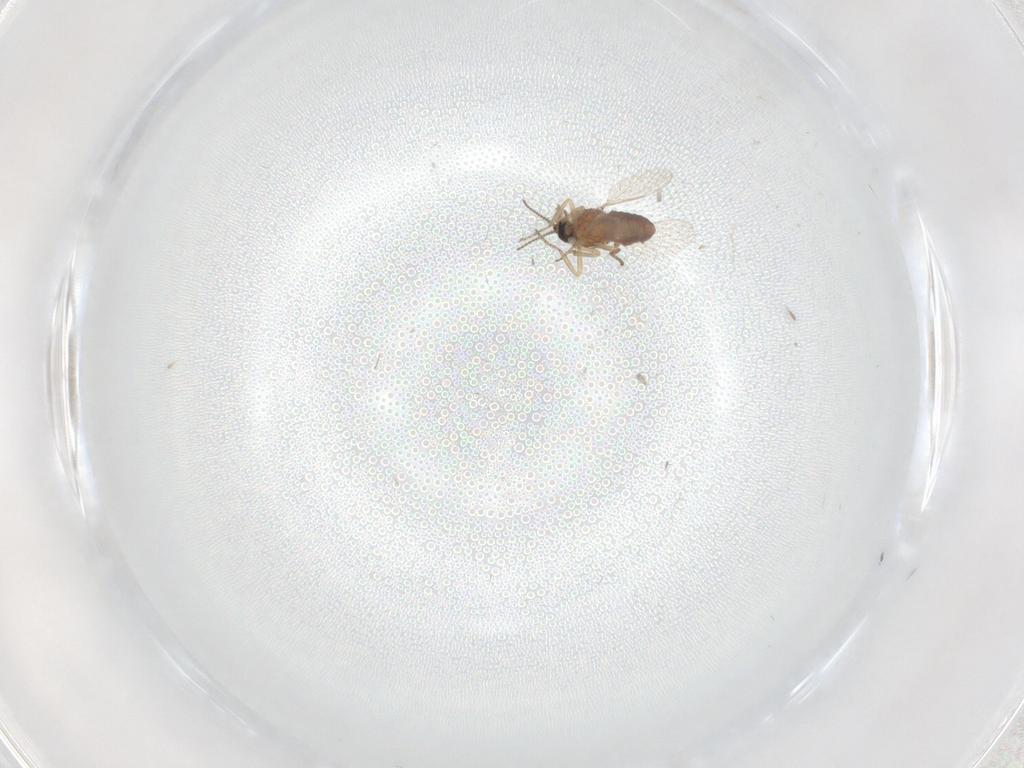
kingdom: Animalia
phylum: Arthropoda
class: Insecta
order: Diptera
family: Ceratopogonidae
